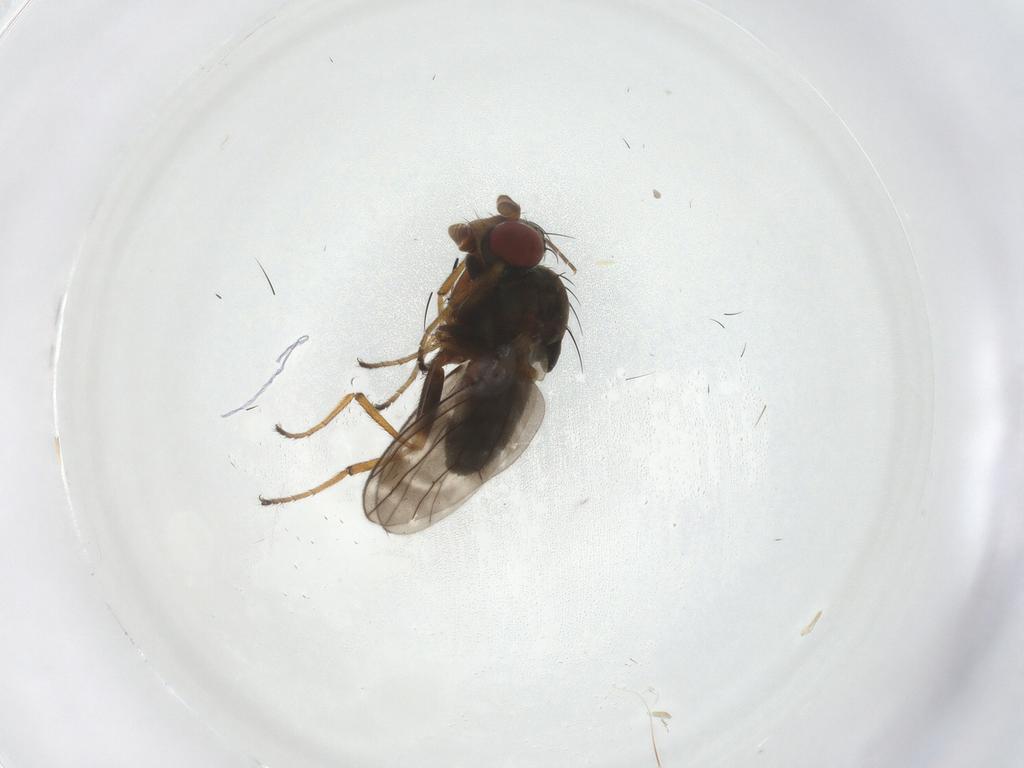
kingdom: Animalia
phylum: Arthropoda
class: Insecta
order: Diptera
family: Ephydridae
